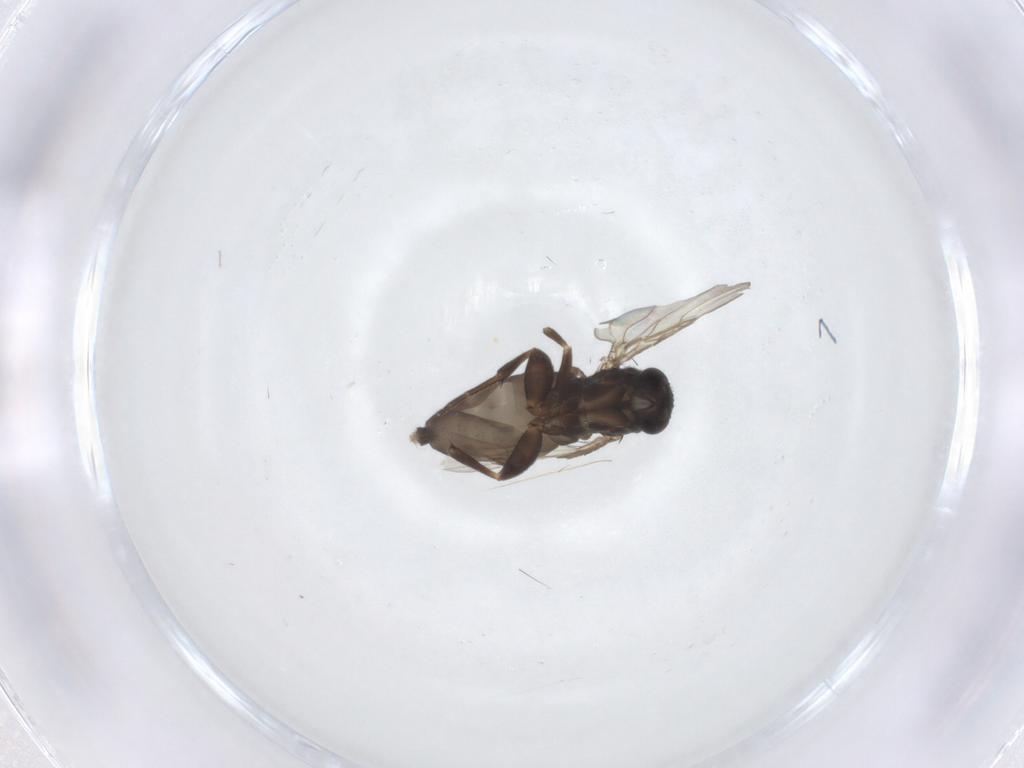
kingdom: Animalia
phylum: Arthropoda
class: Insecta
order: Diptera
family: Phoridae
